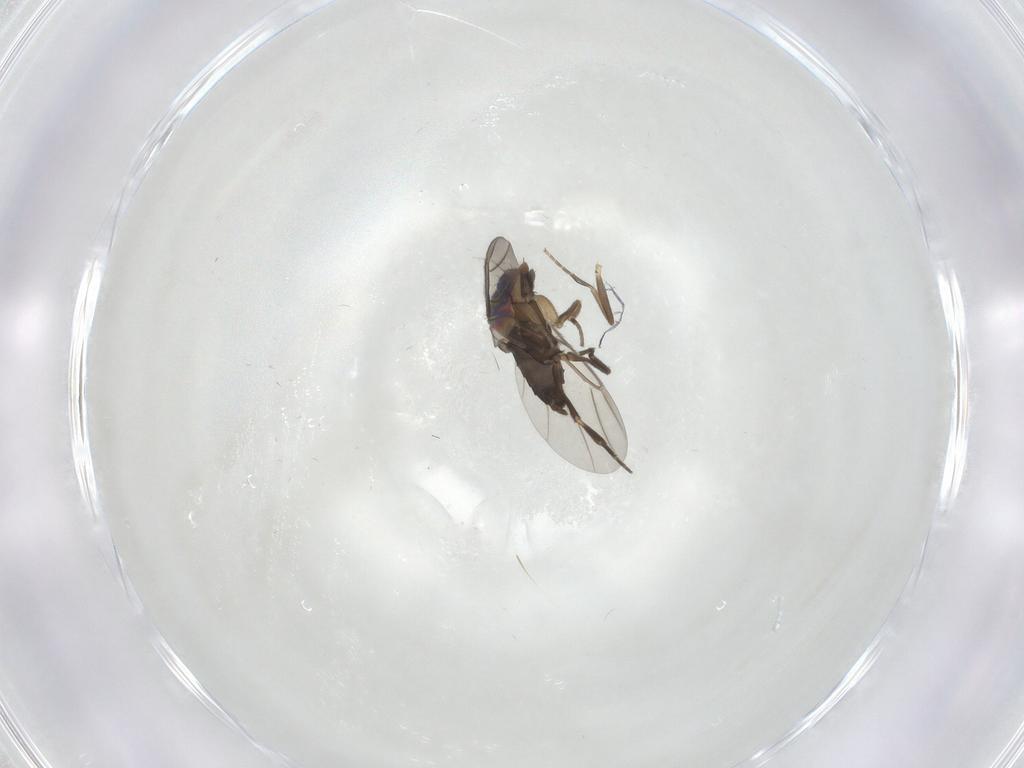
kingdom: Animalia
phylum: Arthropoda
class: Insecta
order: Diptera
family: Phoridae
